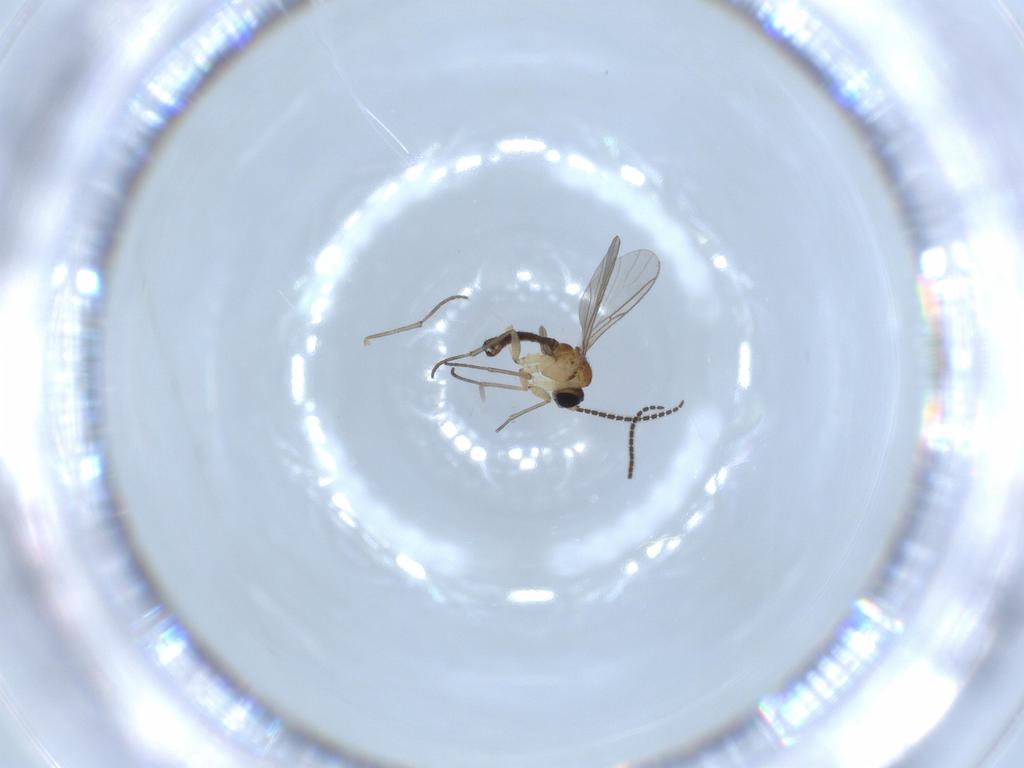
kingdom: Animalia
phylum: Arthropoda
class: Insecta
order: Diptera
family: Sciaridae
